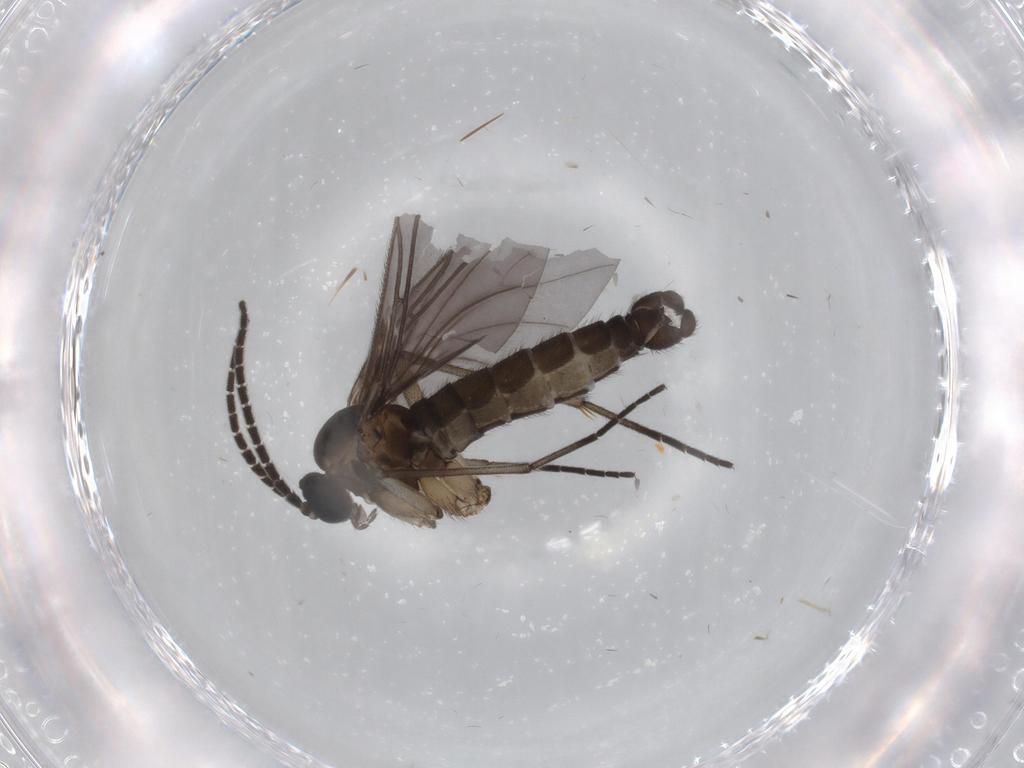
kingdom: Animalia
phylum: Arthropoda
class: Insecta
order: Diptera
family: Sciaridae
